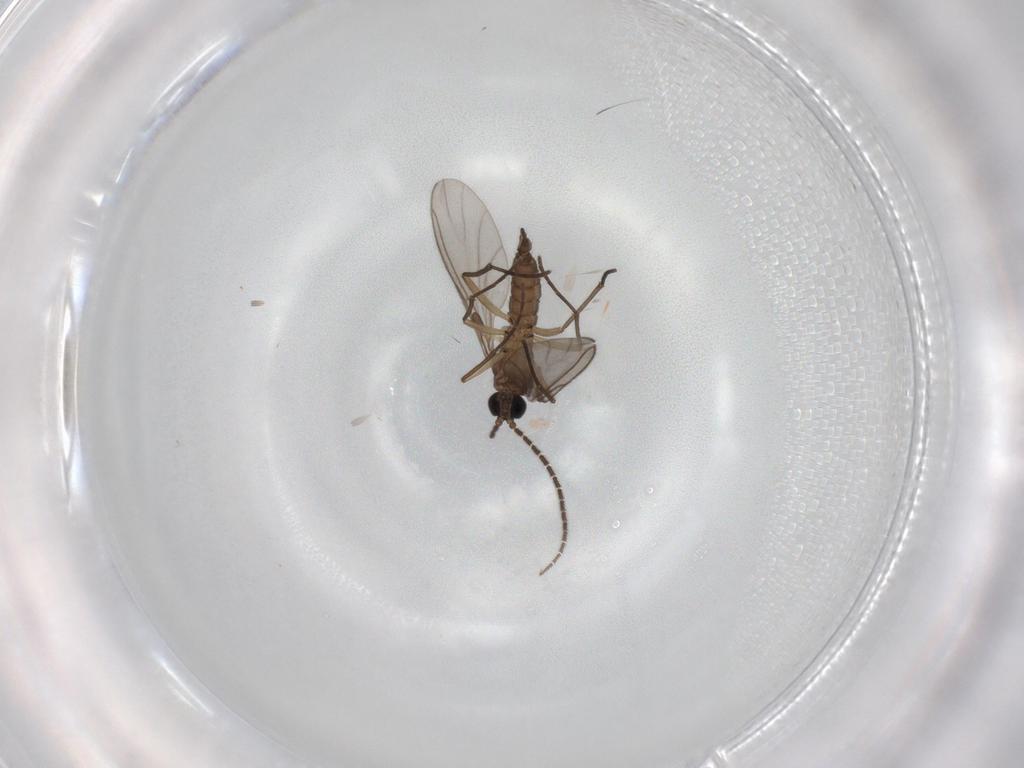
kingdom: Animalia
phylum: Arthropoda
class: Insecta
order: Diptera
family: Sciaridae
